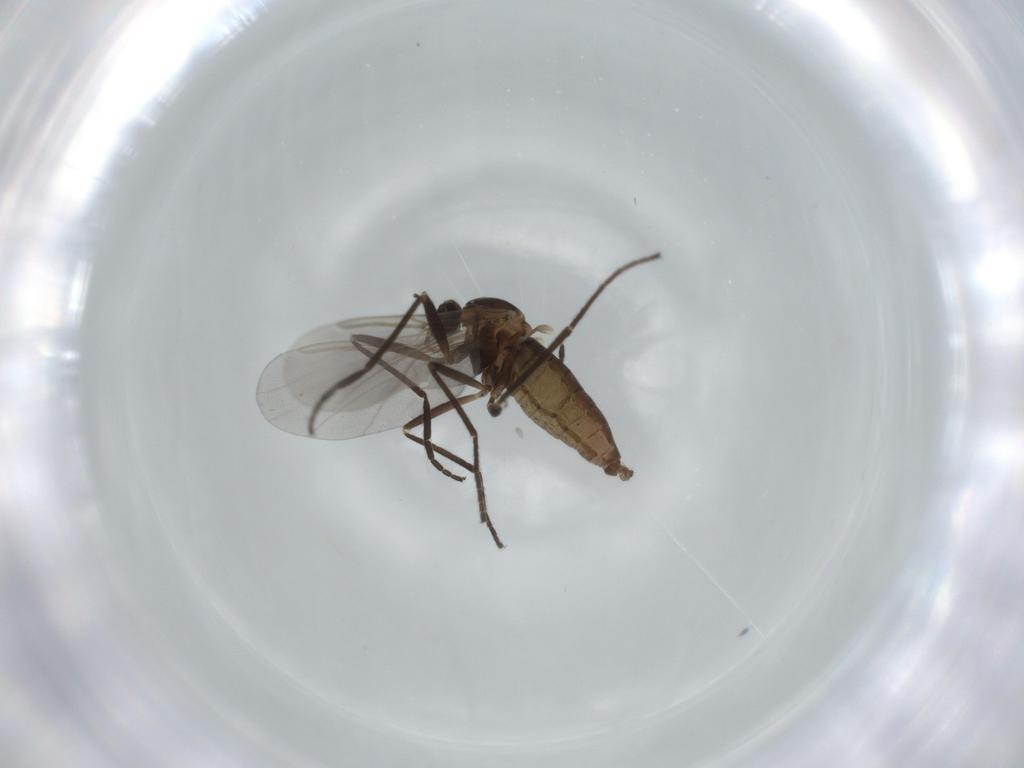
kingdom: Animalia
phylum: Arthropoda
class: Insecta
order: Diptera
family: Cecidomyiidae
